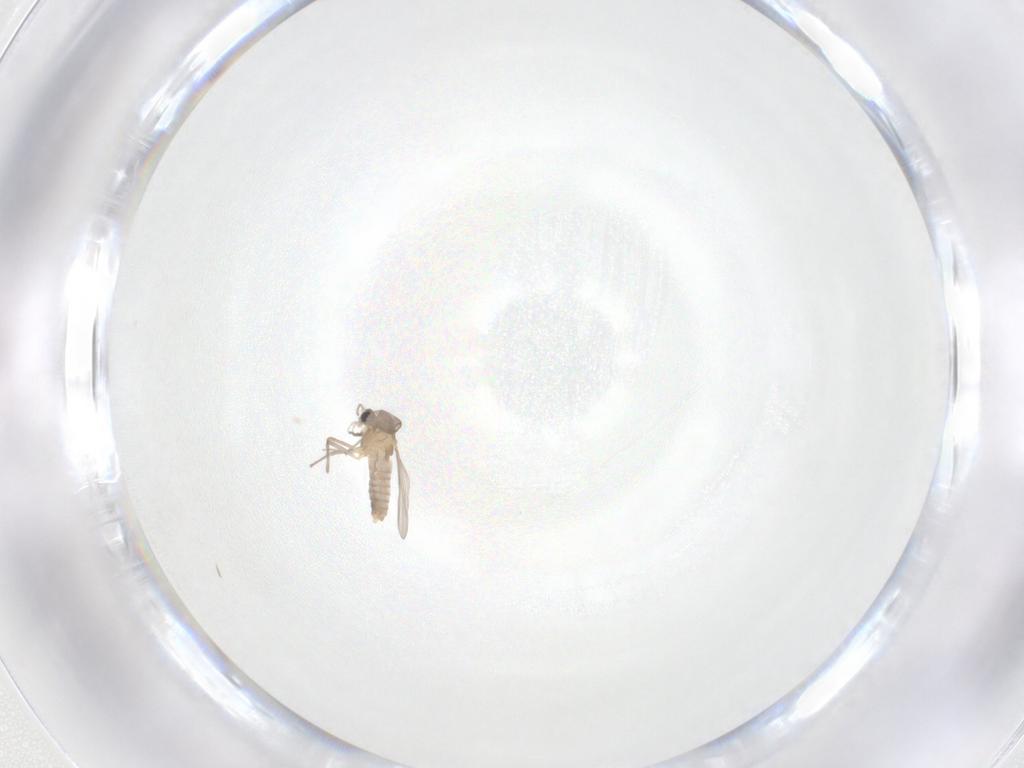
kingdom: Animalia
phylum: Arthropoda
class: Insecta
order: Diptera
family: Chironomidae
